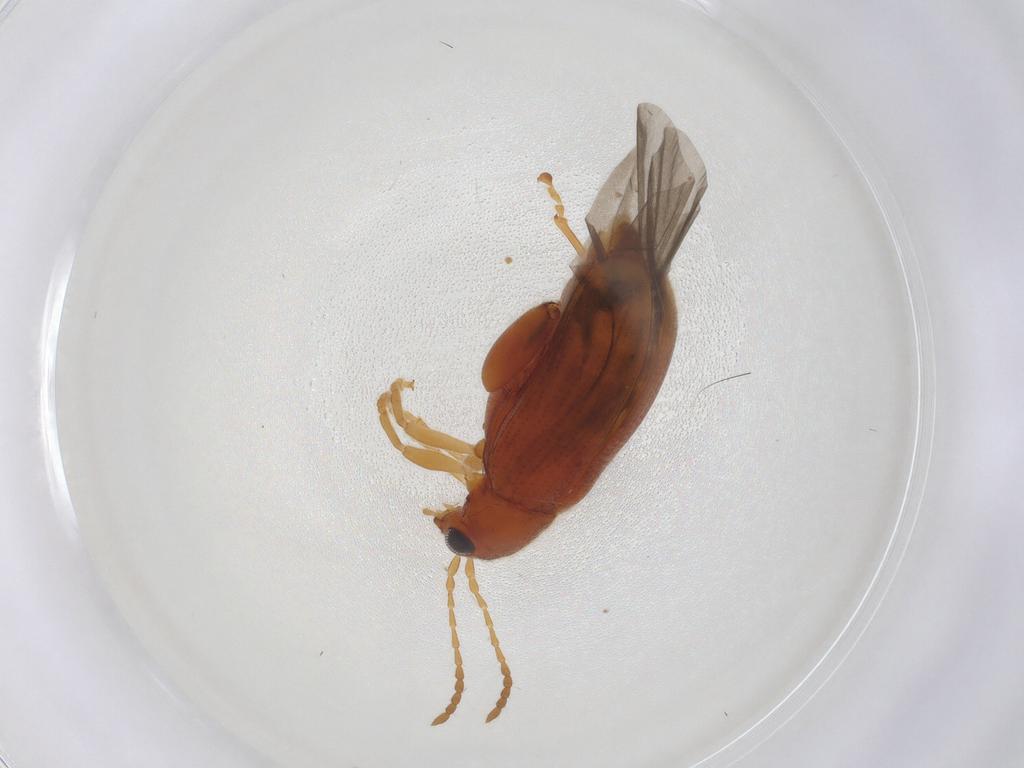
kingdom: Animalia
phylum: Arthropoda
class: Insecta
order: Coleoptera
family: Chrysomelidae
